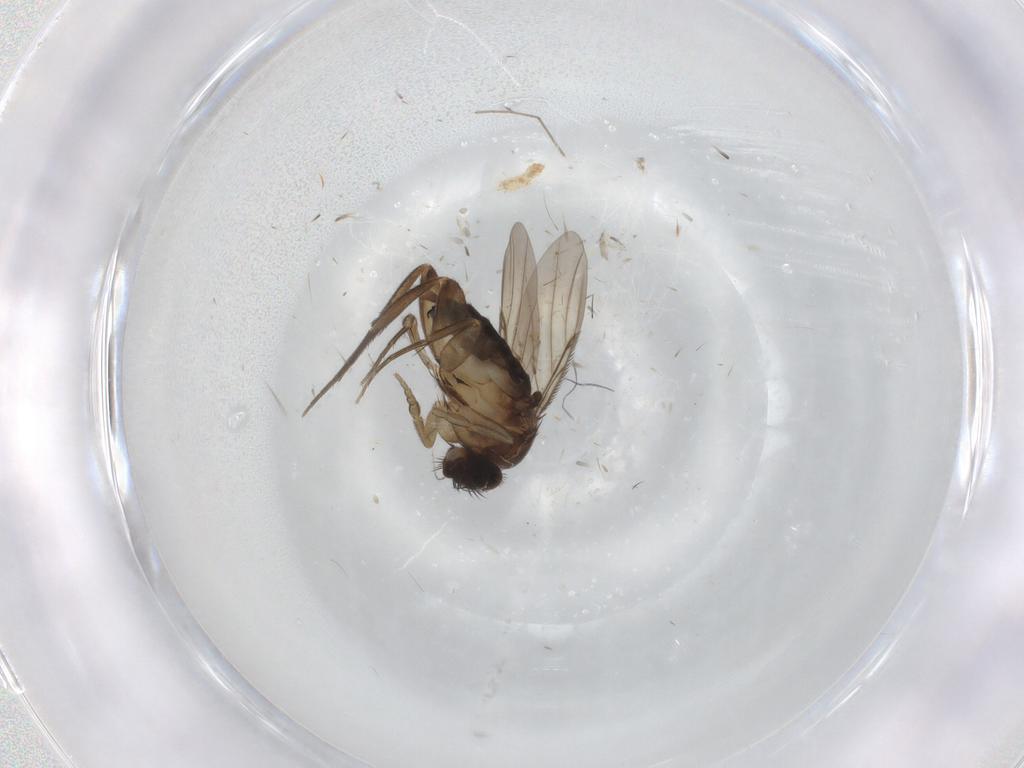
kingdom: Animalia
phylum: Arthropoda
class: Insecta
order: Diptera
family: Phoridae
